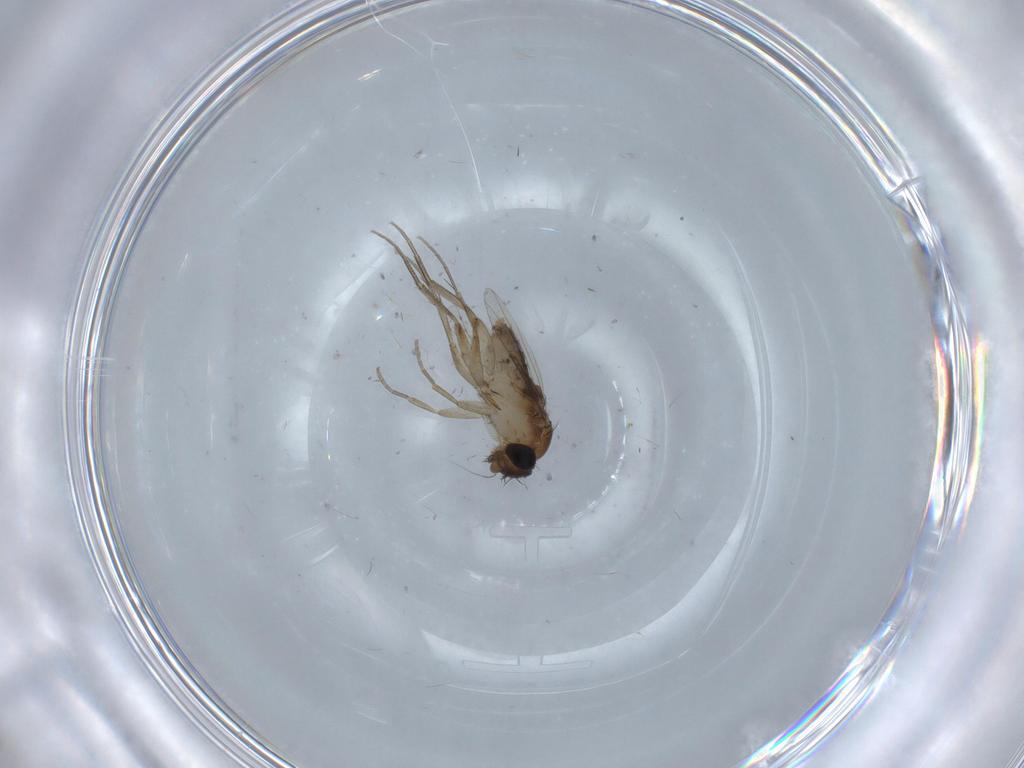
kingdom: Animalia
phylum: Arthropoda
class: Insecta
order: Diptera
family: Phoridae
